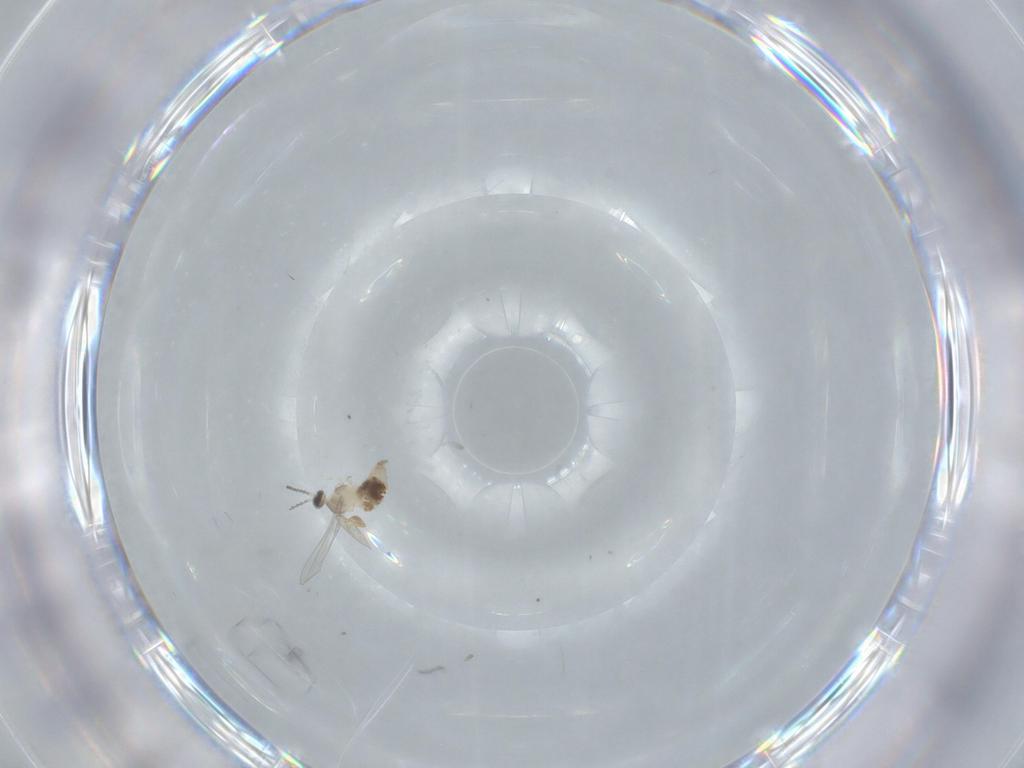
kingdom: Animalia
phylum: Arthropoda
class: Insecta
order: Diptera
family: Cecidomyiidae
